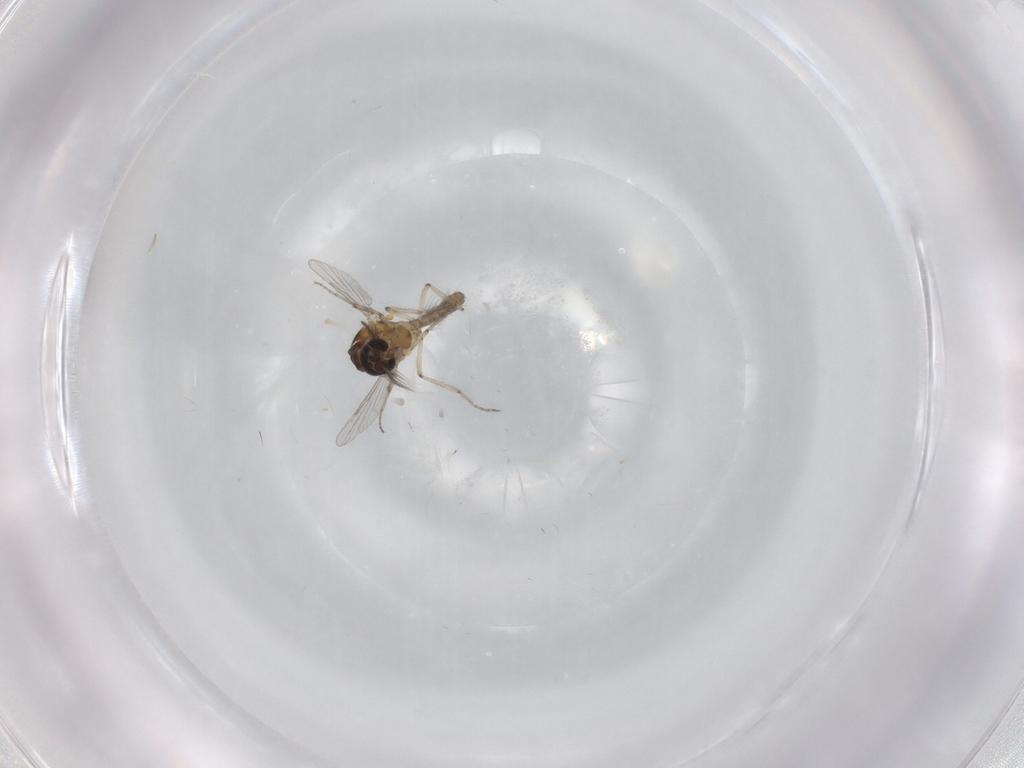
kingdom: Animalia
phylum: Arthropoda
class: Insecta
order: Diptera
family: Ceratopogonidae
